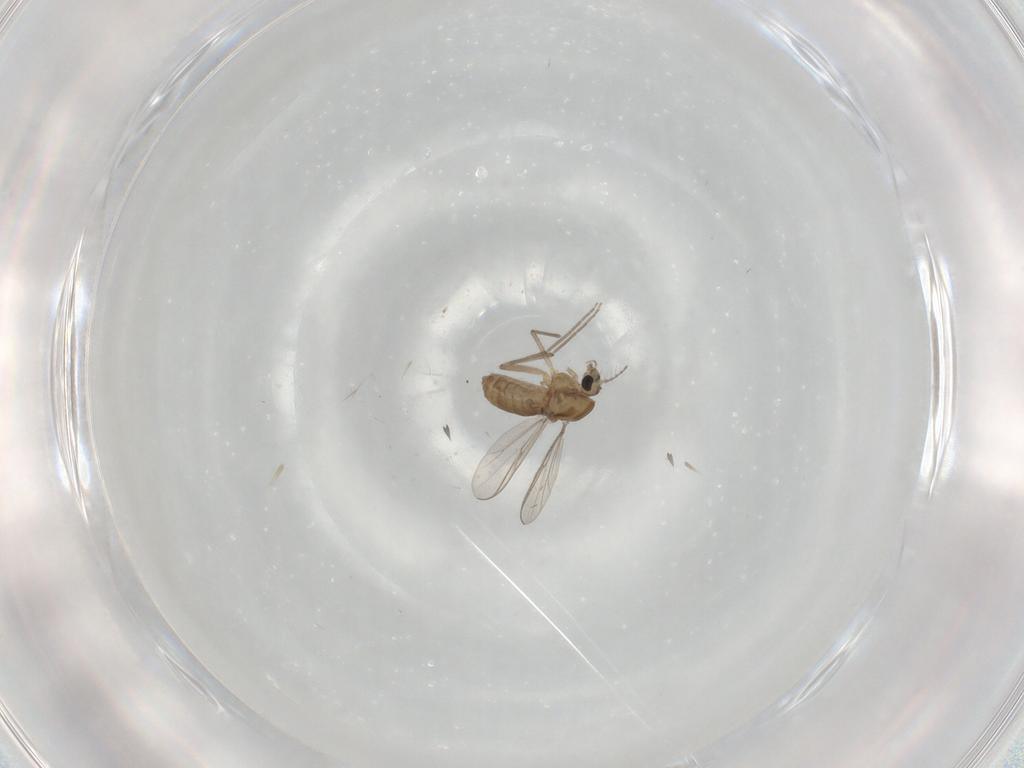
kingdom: Animalia
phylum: Arthropoda
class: Insecta
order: Diptera
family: Chironomidae
